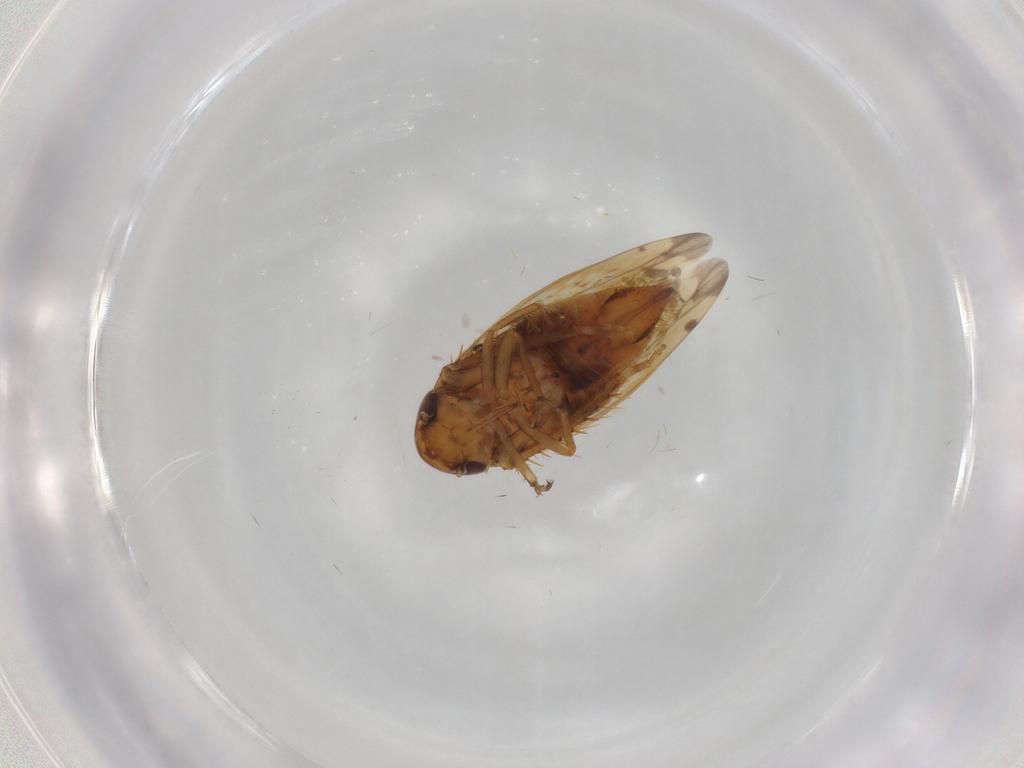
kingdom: Animalia
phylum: Arthropoda
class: Insecta
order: Hemiptera
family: Cicadellidae
